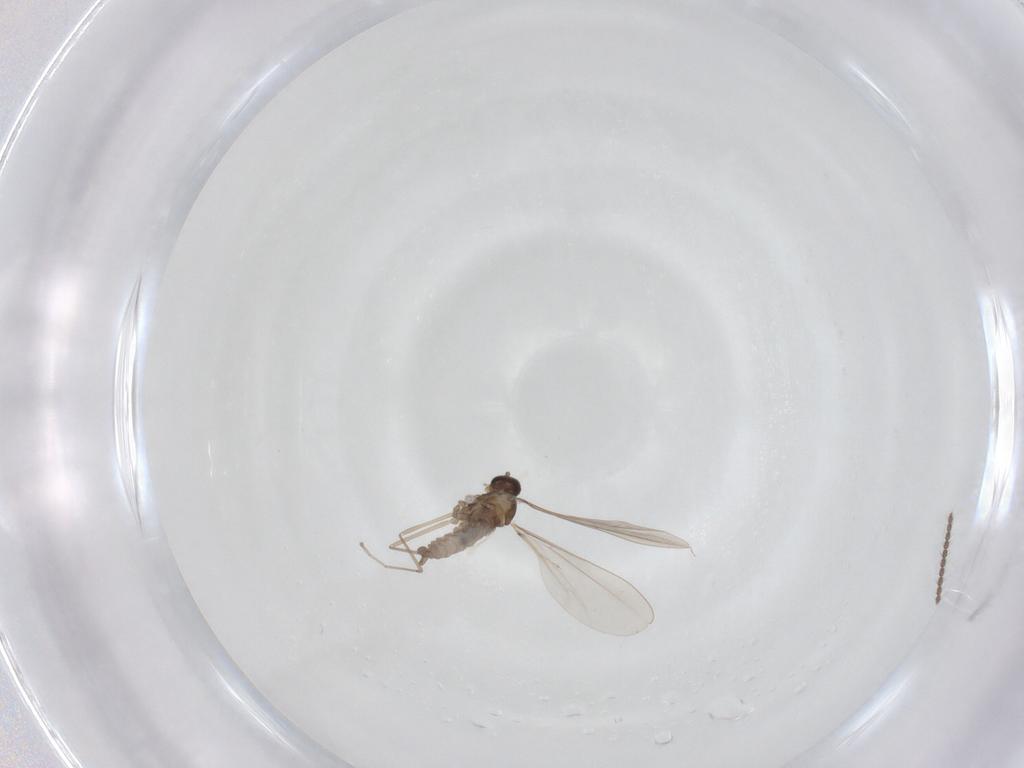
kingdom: Animalia
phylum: Arthropoda
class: Insecta
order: Diptera
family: Cecidomyiidae
